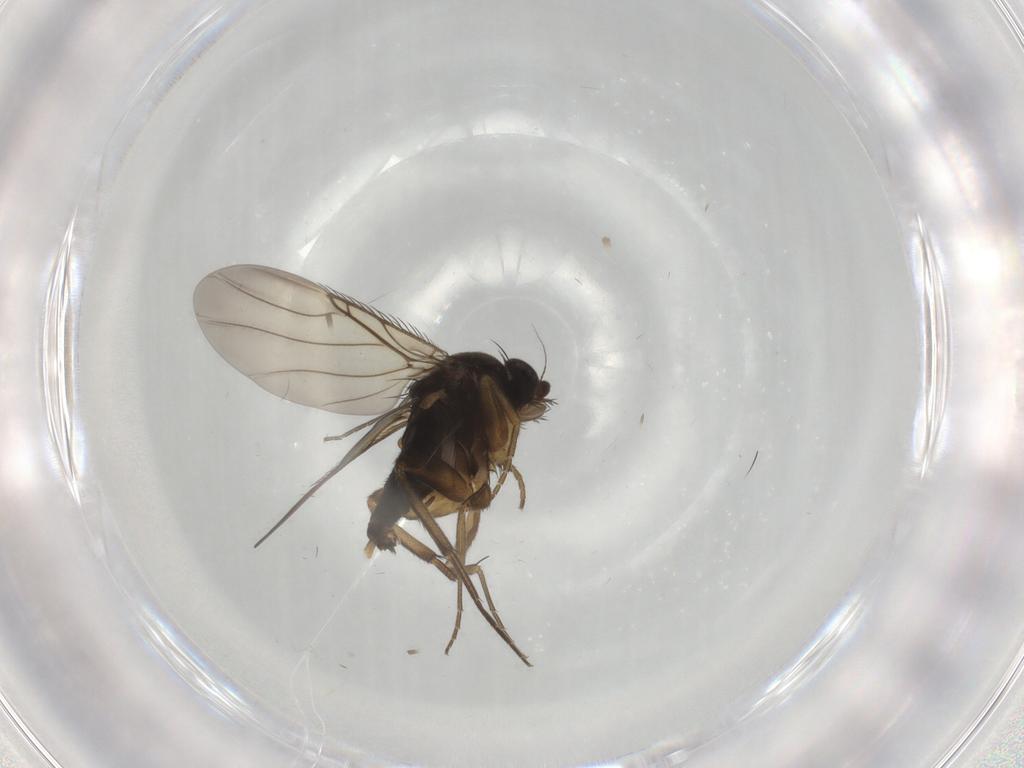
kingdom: Animalia
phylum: Arthropoda
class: Insecta
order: Diptera
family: Phoridae
